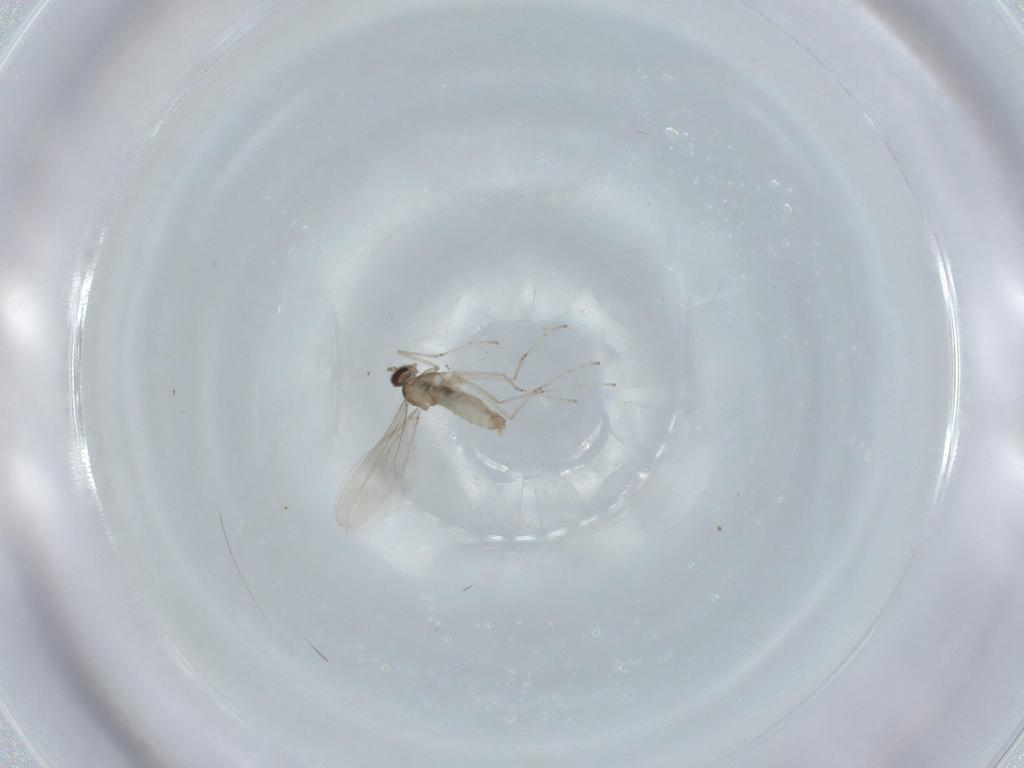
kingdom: Animalia
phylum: Arthropoda
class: Insecta
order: Diptera
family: Cecidomyiidae
